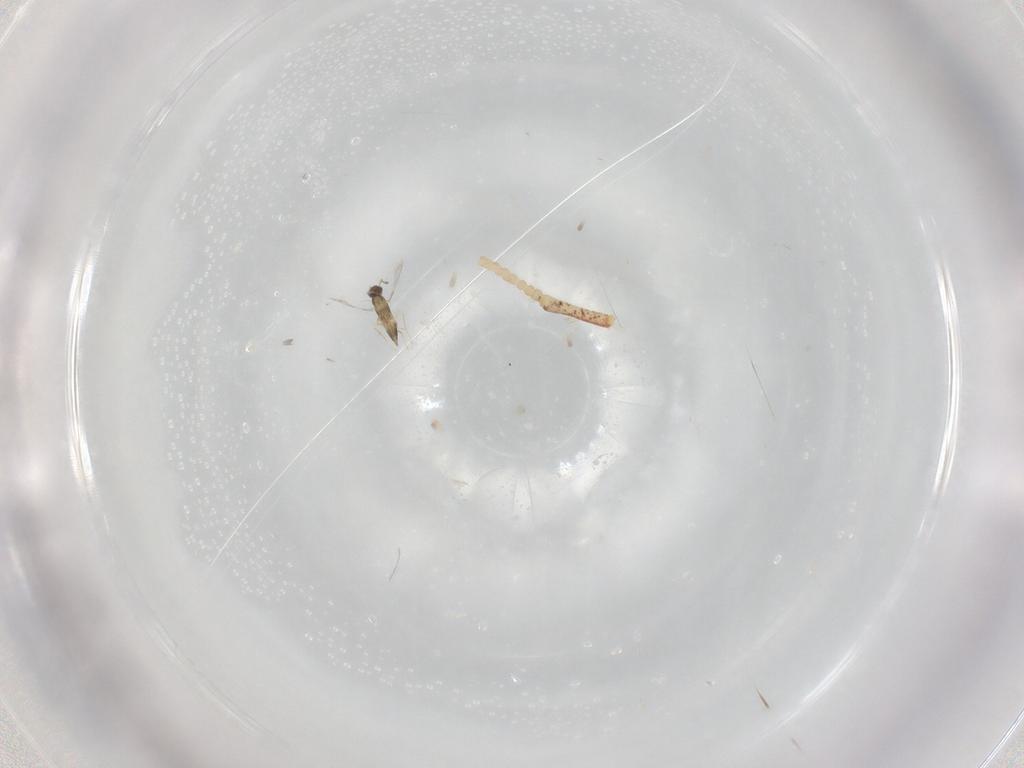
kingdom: Animalia
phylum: Arthropoda
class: Insecta
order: Hymenoptera
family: Mymaridae
